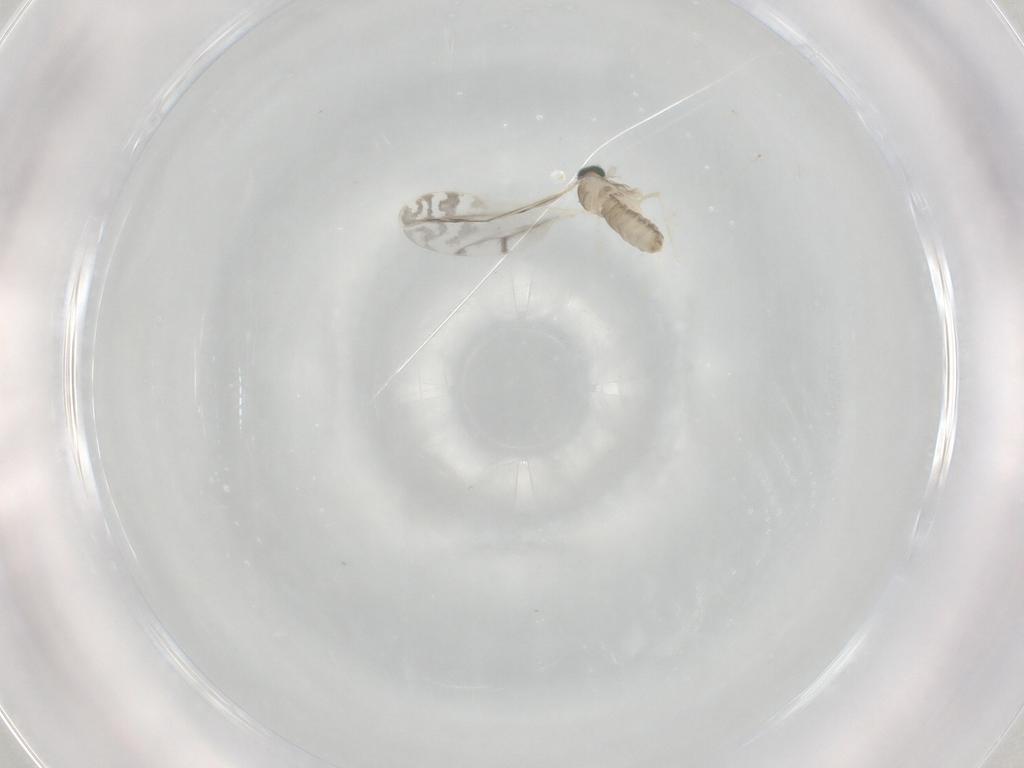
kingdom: Animalia
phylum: Arthropoda
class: Insecta
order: Diptera
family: Cecidomyiidae
